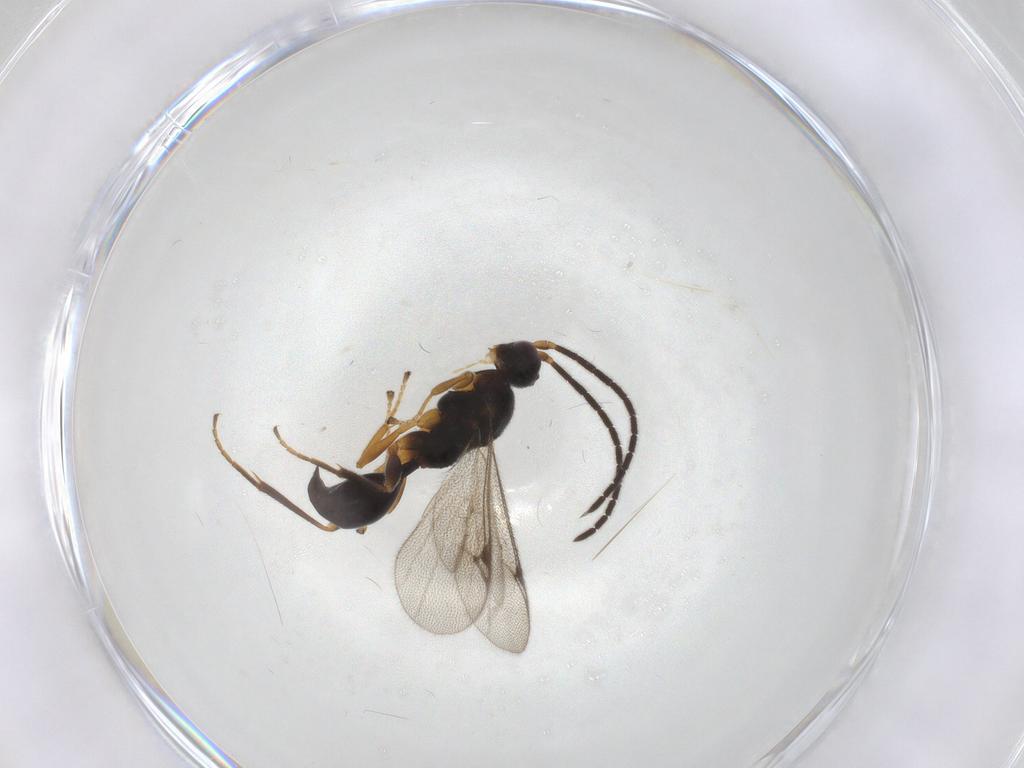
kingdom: Animalia
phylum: Arthropoda
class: Insecta
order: Hymenoptera
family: Proctotrupidae
